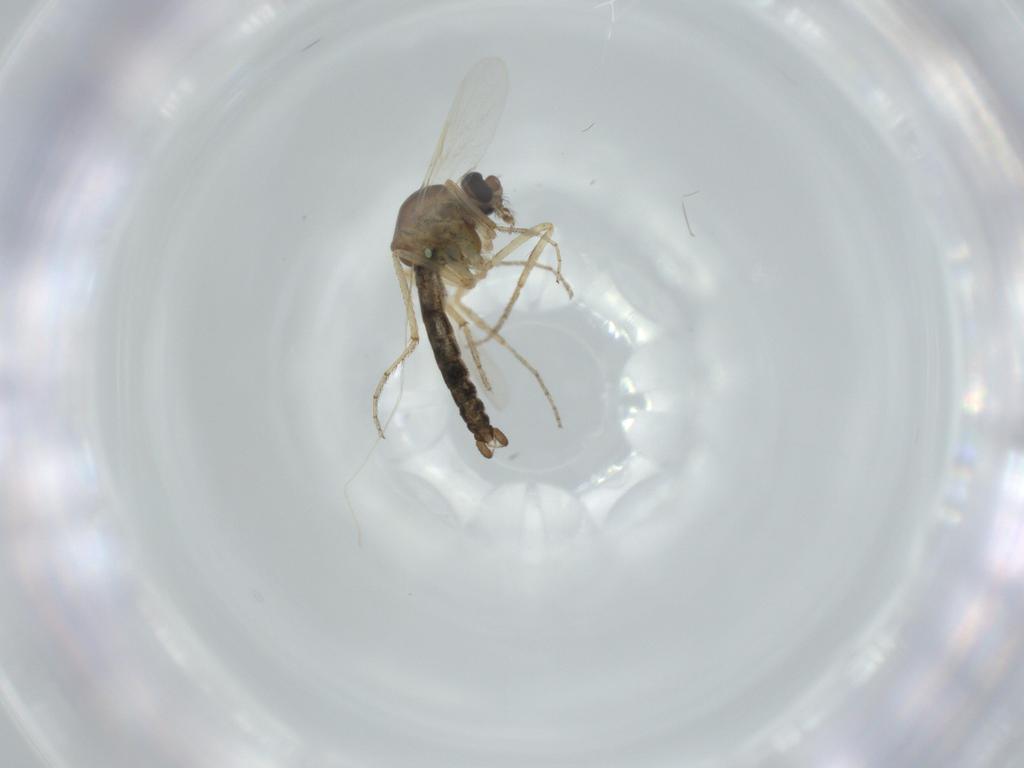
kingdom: Animalia
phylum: Arthropoda
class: Insecta
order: Diptera
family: Ceratopogonidae
